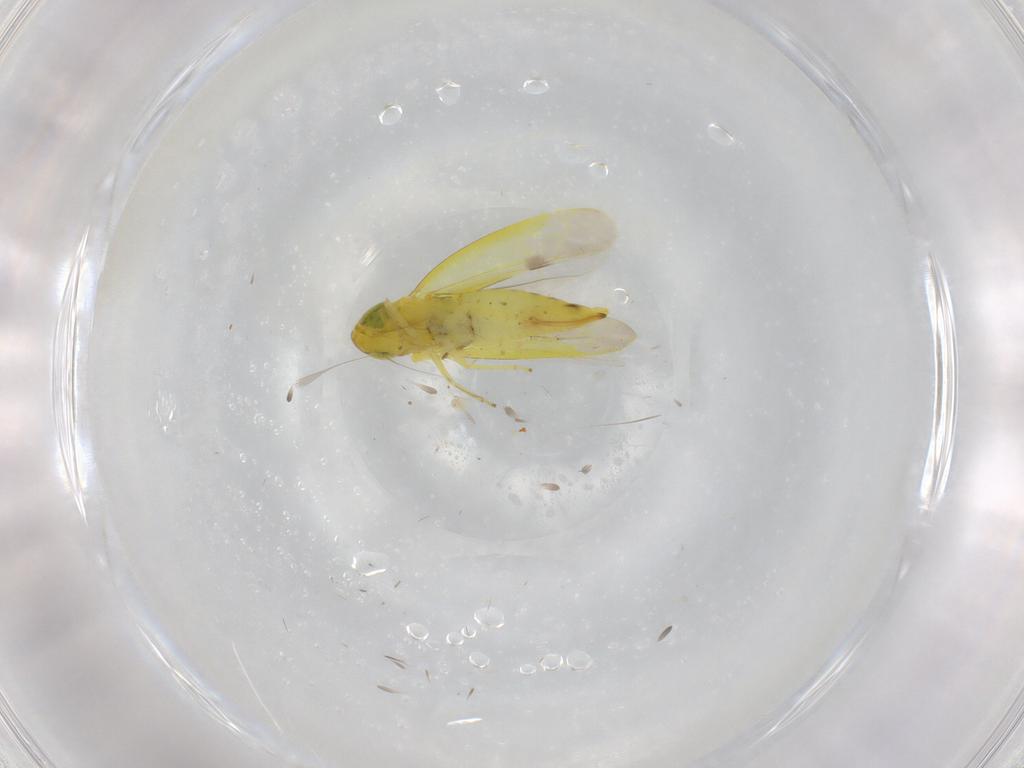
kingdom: Animalia
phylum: Arthropoda
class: Insecta
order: Hemiptera
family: Cicadellidae
